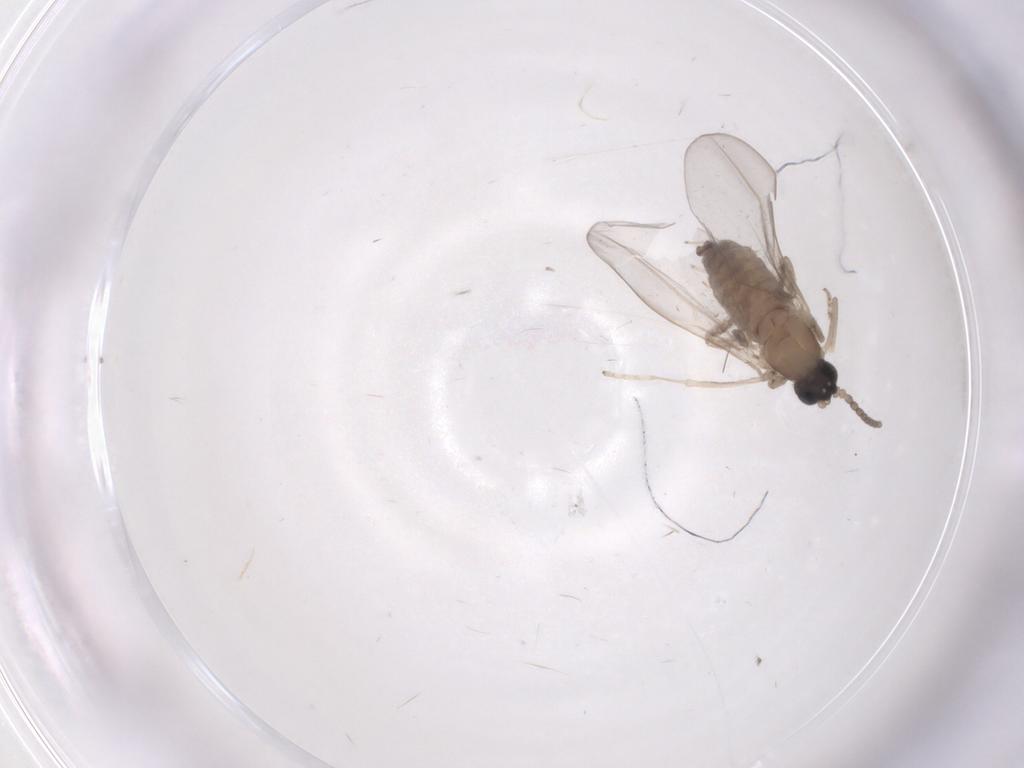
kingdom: Animalia
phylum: Arthropoda
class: Insecta
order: Diptera
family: Cecidomyiidae
